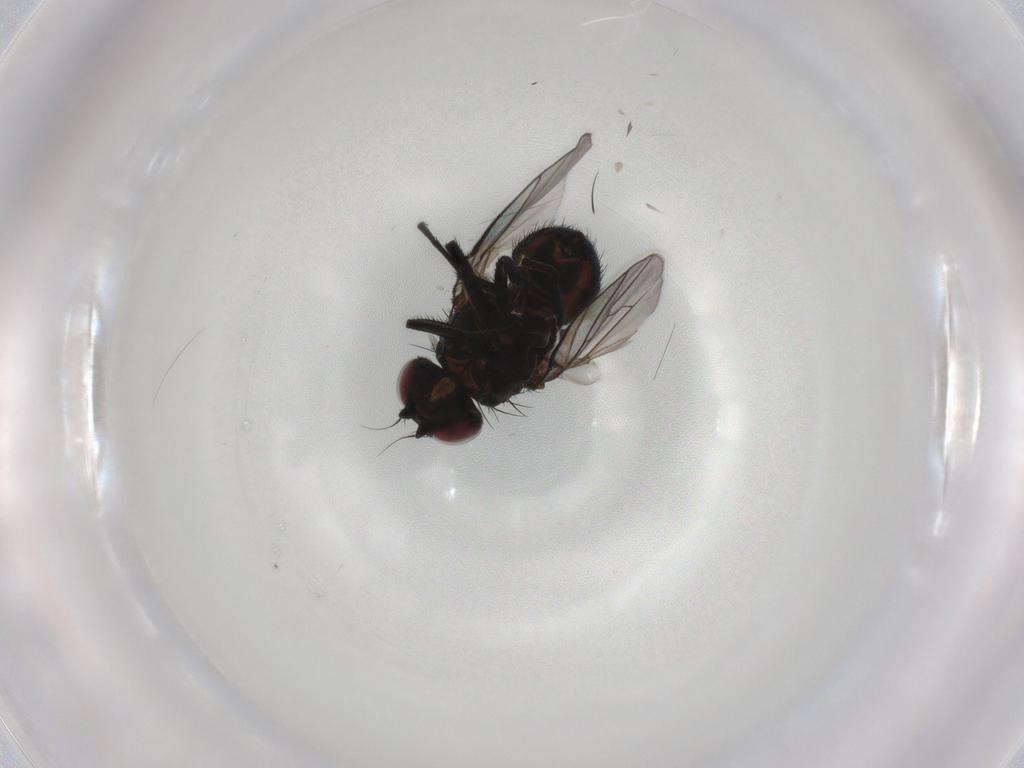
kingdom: Animalia
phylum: Arthropoda
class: Insecta
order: Diptera
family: Agromyzidae
